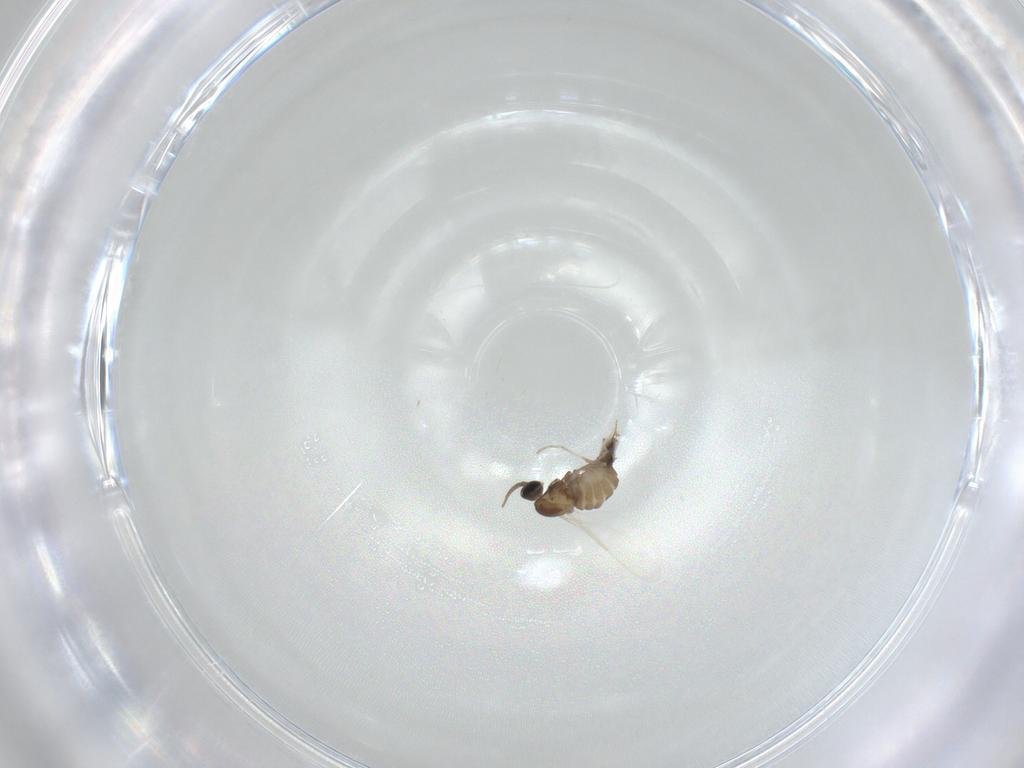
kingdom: Animalia
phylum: Arthropoda
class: Insecta
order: Diptera
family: Cecidomyiidae
